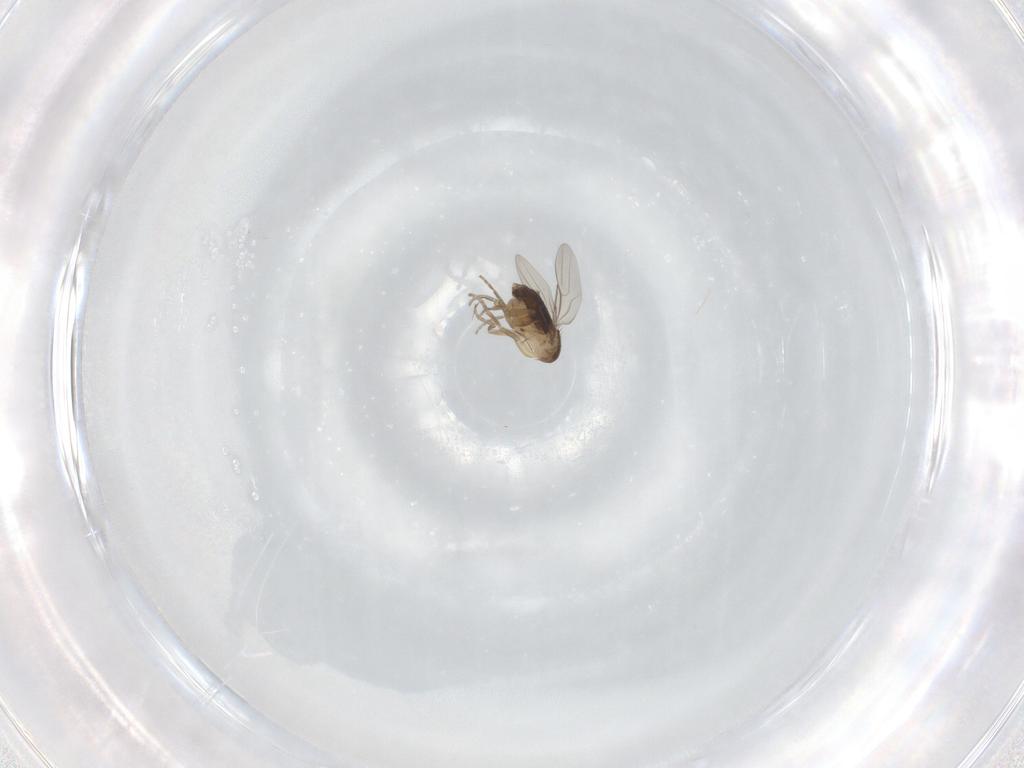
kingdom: Animalia
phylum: Arthropoda
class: Insecta
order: Diptera
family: Phoridae
